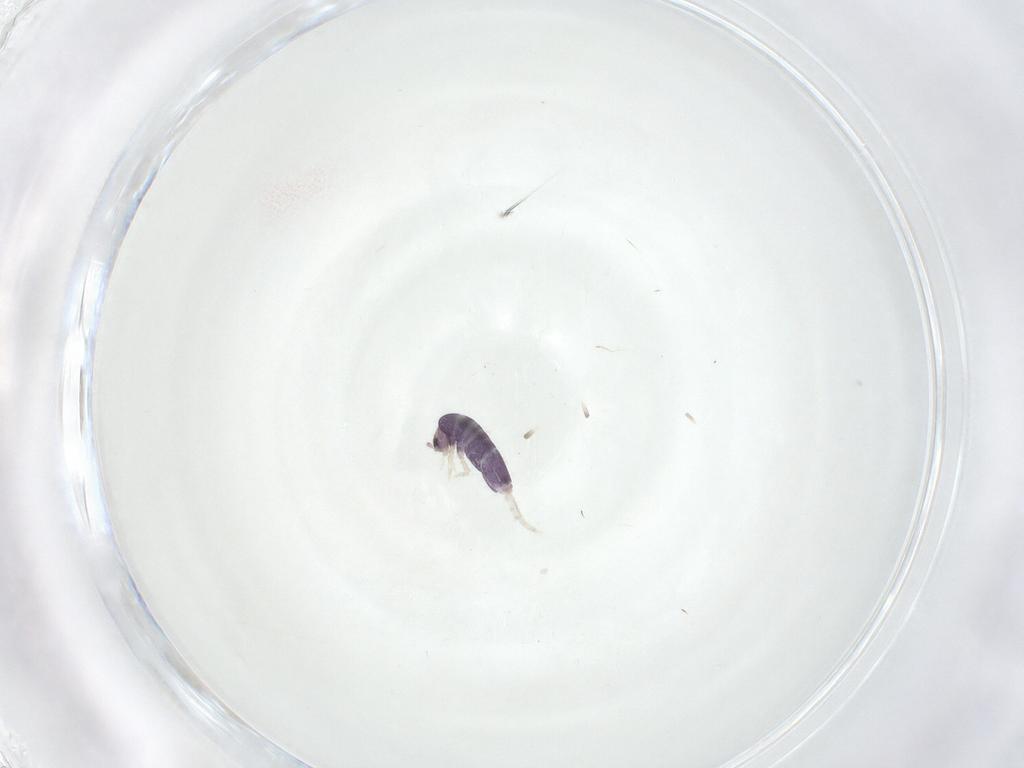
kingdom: Animalia
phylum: Arthropoda
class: Collembola
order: Entomobryomorpha
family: Entomobryidae
